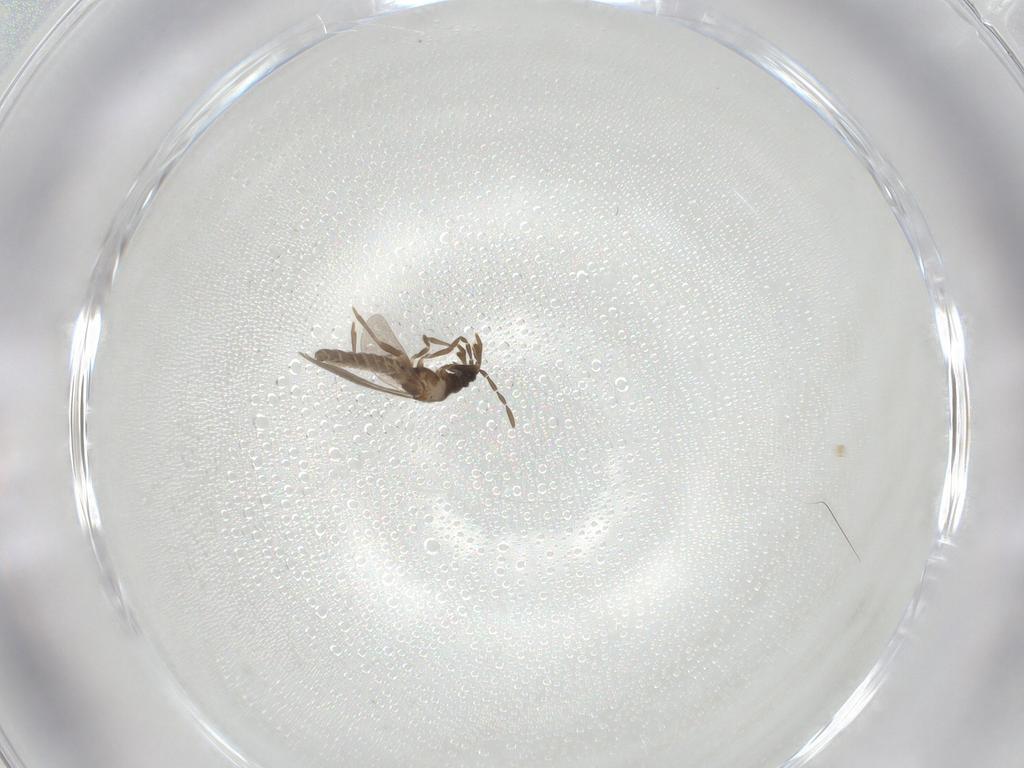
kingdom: Animalia
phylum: Arthropoda
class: Insecta
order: Hemiptera
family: Enicocephalidae
